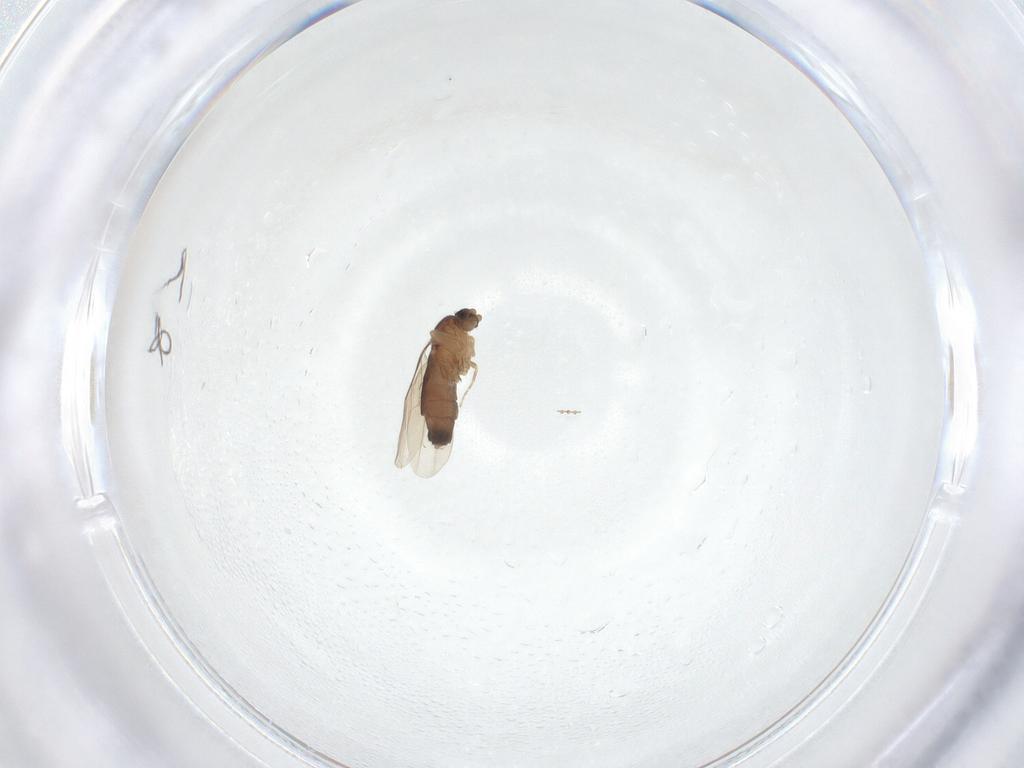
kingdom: Animalia
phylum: Arthropoda
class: Insecta
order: Diptera
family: Phoridae
